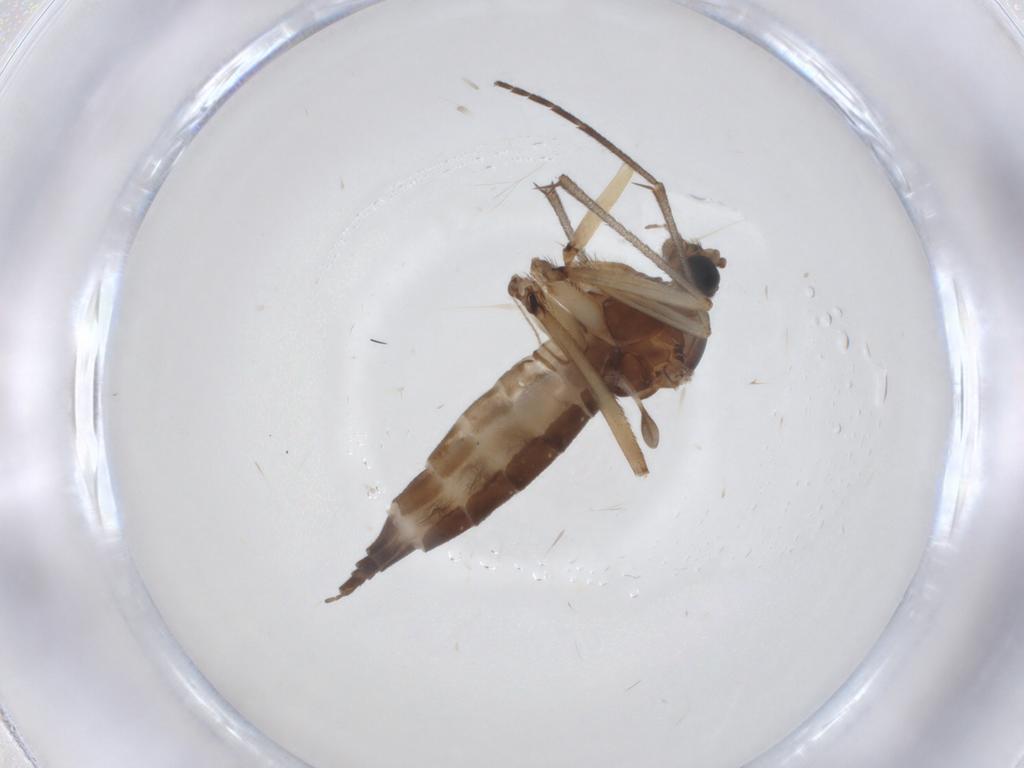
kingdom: Animalia
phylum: Arthropoda
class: Insecta
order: Diptera
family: Sciaridae
